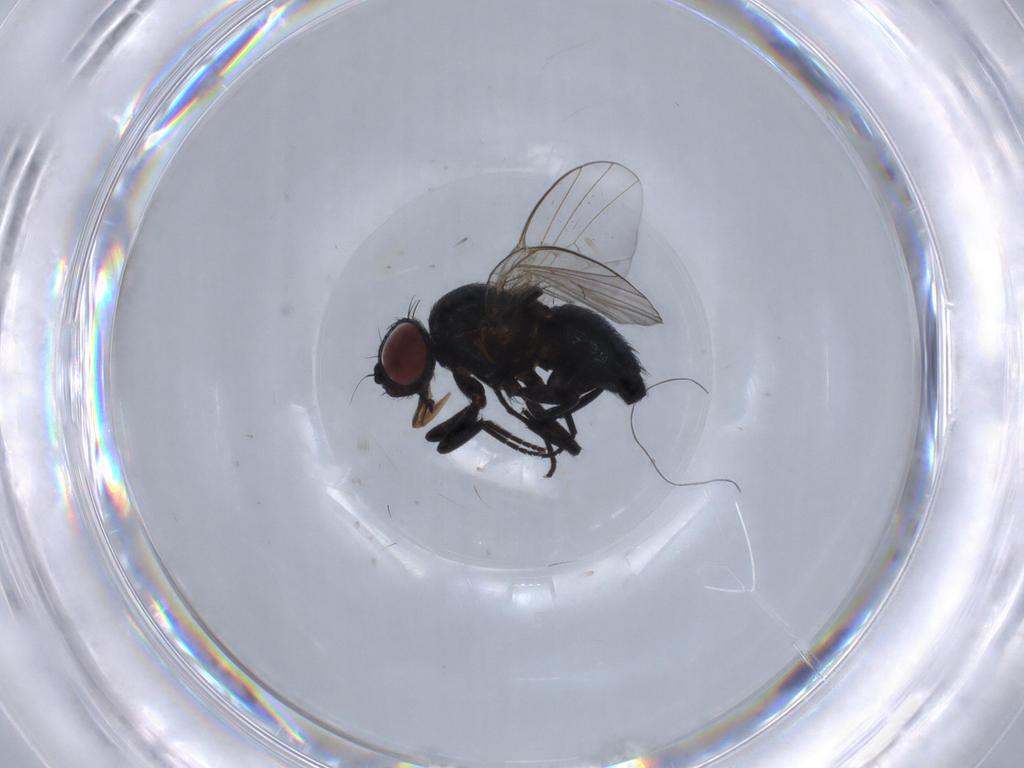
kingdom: Animalia
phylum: Arthropoda
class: Insecta
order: Diptera
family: Agromyzidae
